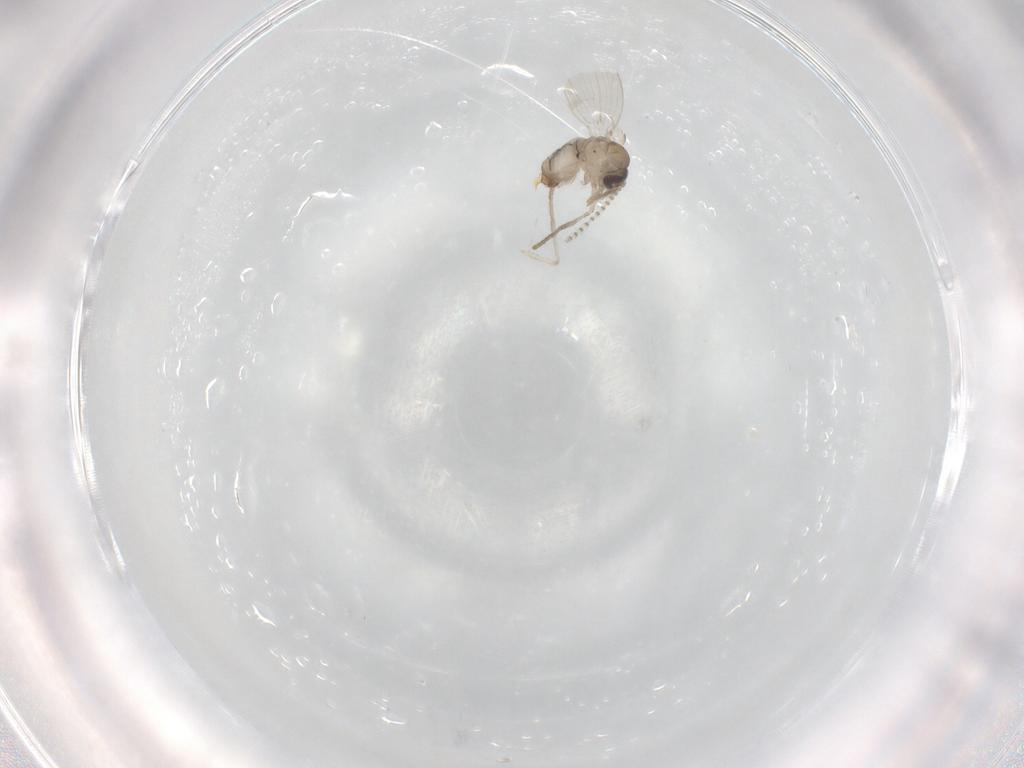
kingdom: Animalia
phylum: Arthropoda
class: Insecta
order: Diptera
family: Psychodidae
